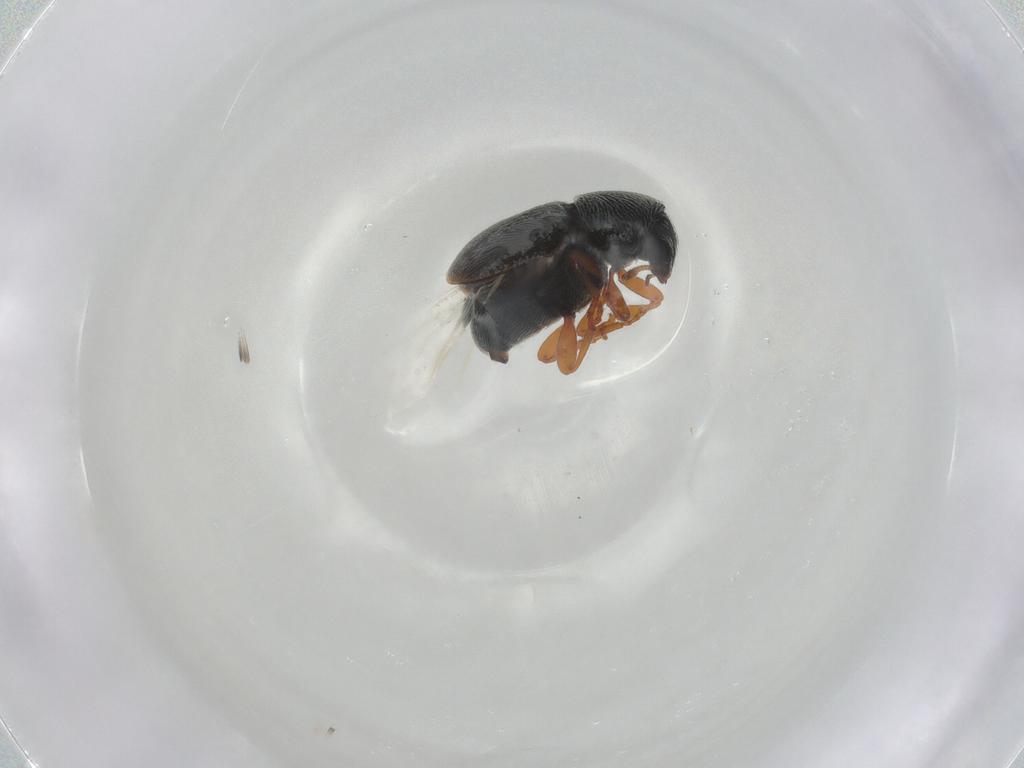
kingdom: Animalia
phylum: Arthropoda
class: Insecta
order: Coleoptera
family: Anthribidae
